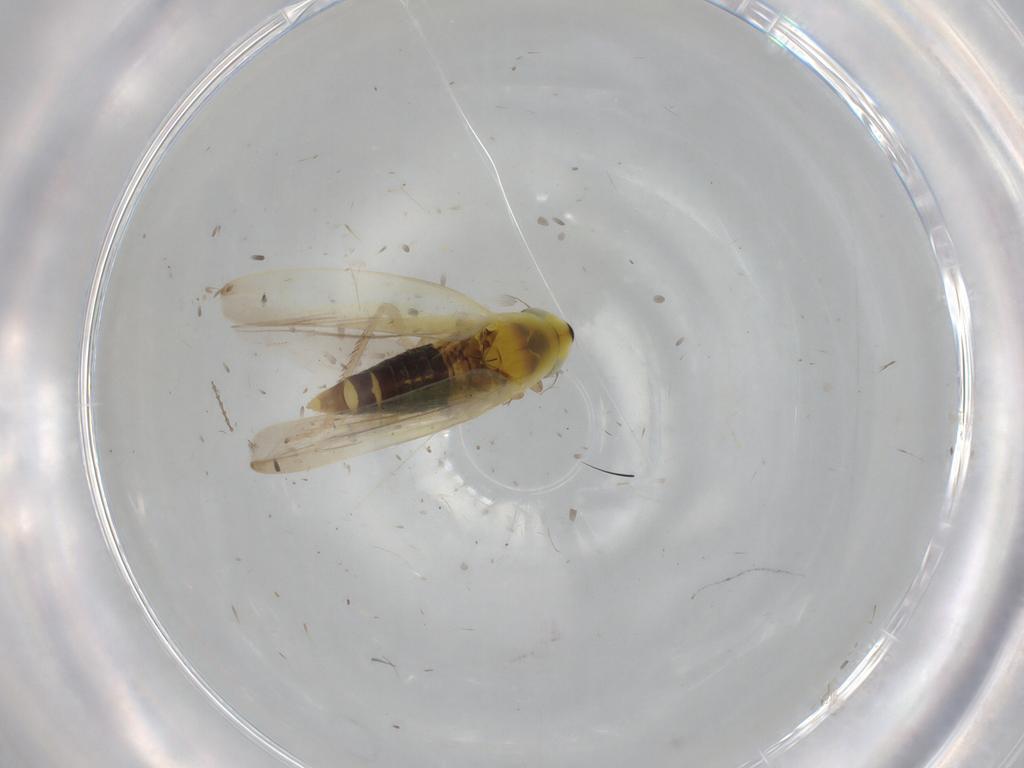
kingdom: Animalia
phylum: Arthropoda
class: Insecta
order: Hemiptera
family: Cicadellidae
